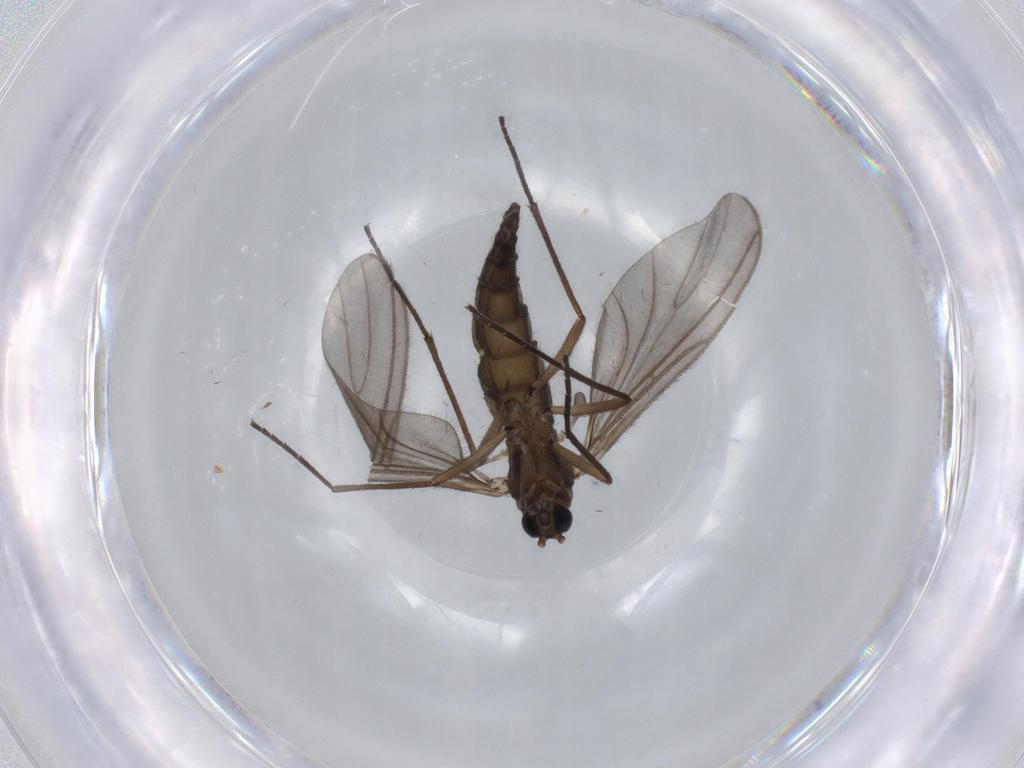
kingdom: Animalia
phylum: Arthropoda
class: Insecta
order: Diptera
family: Sciaridae
